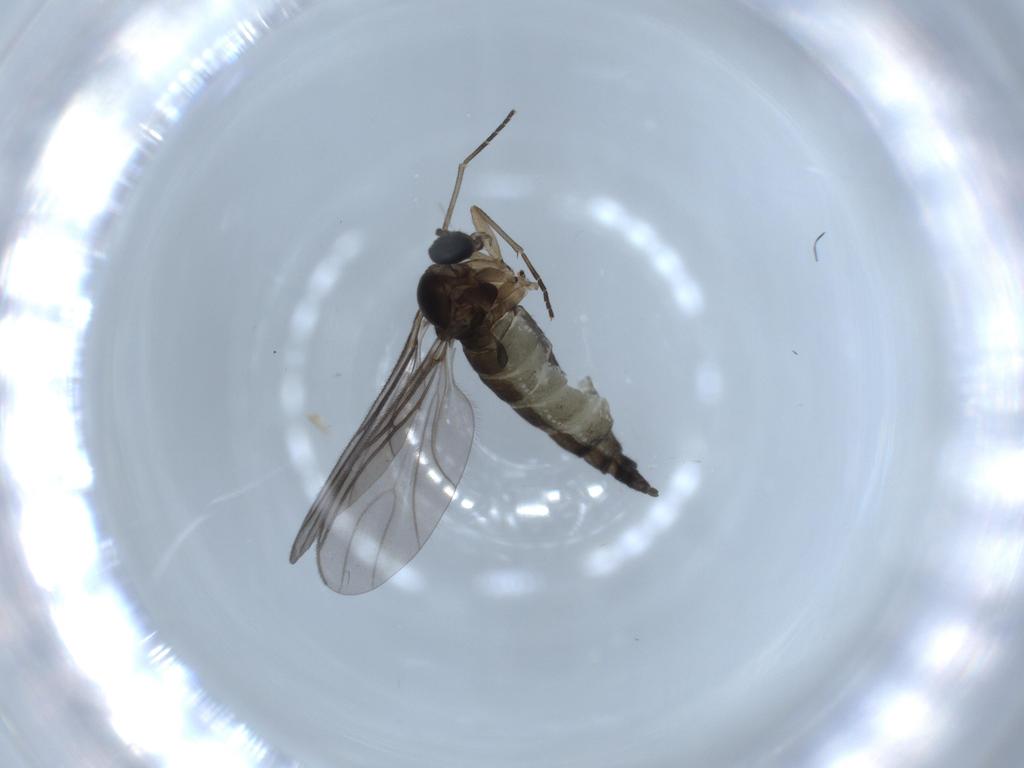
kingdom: Animalia
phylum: Arthropoda
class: Insecta
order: Diptera
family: Sciaridae
